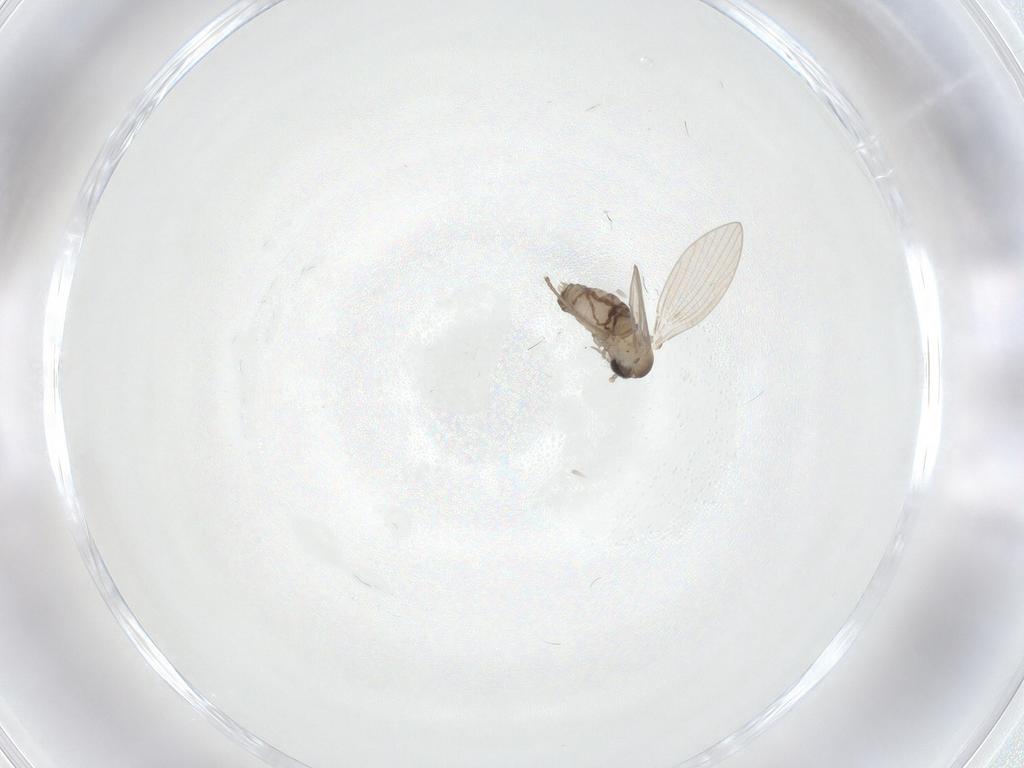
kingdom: Animalia
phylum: Arthropoda
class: Insecta
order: Diptera
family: Psychodidae
